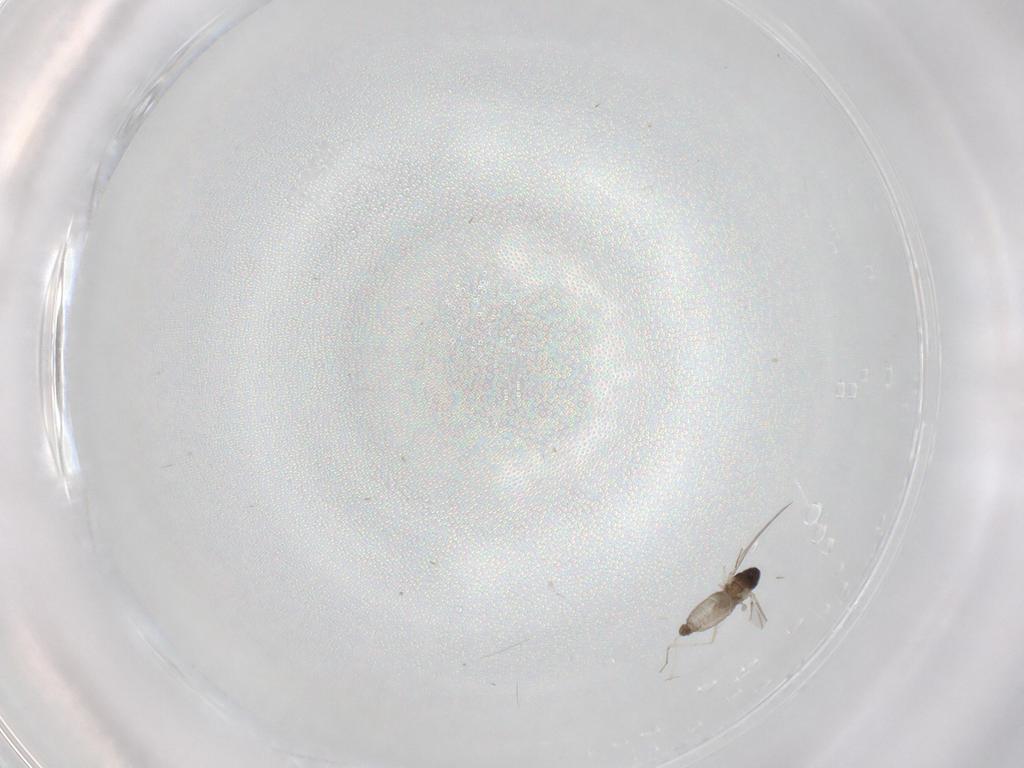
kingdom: Animalia
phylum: Arthropoda
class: Insecta
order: Diptera
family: Cecidomyiidae
